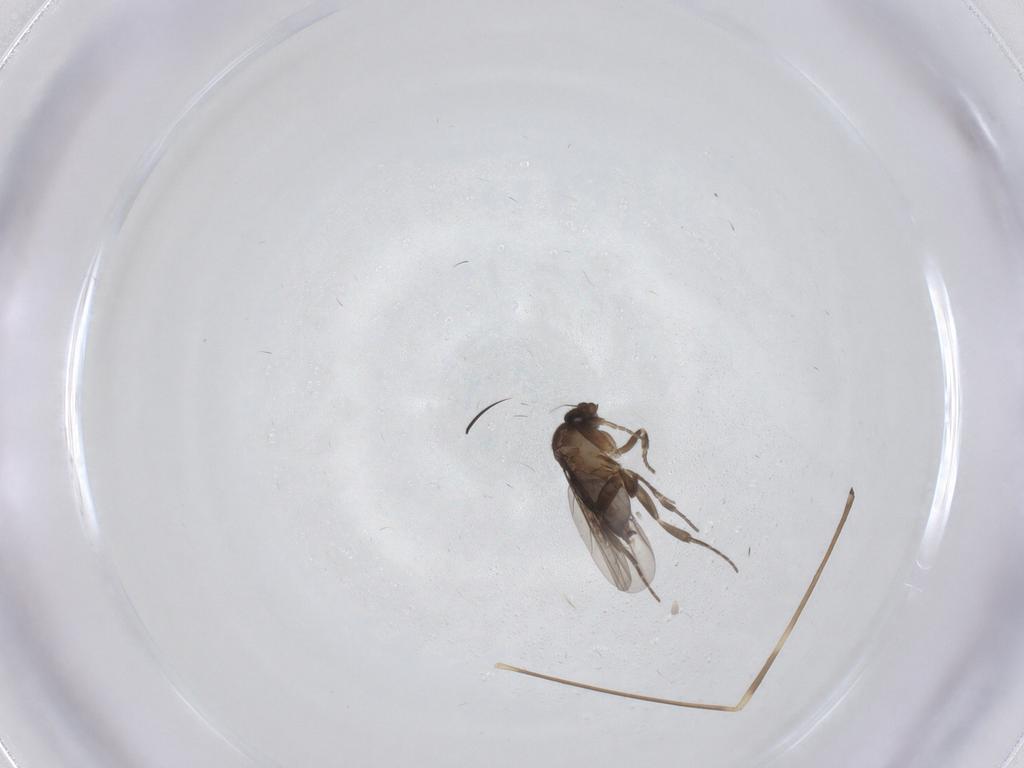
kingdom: Animalia
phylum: Arthropoda
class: Insecta
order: Diptera
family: Limoniidae
